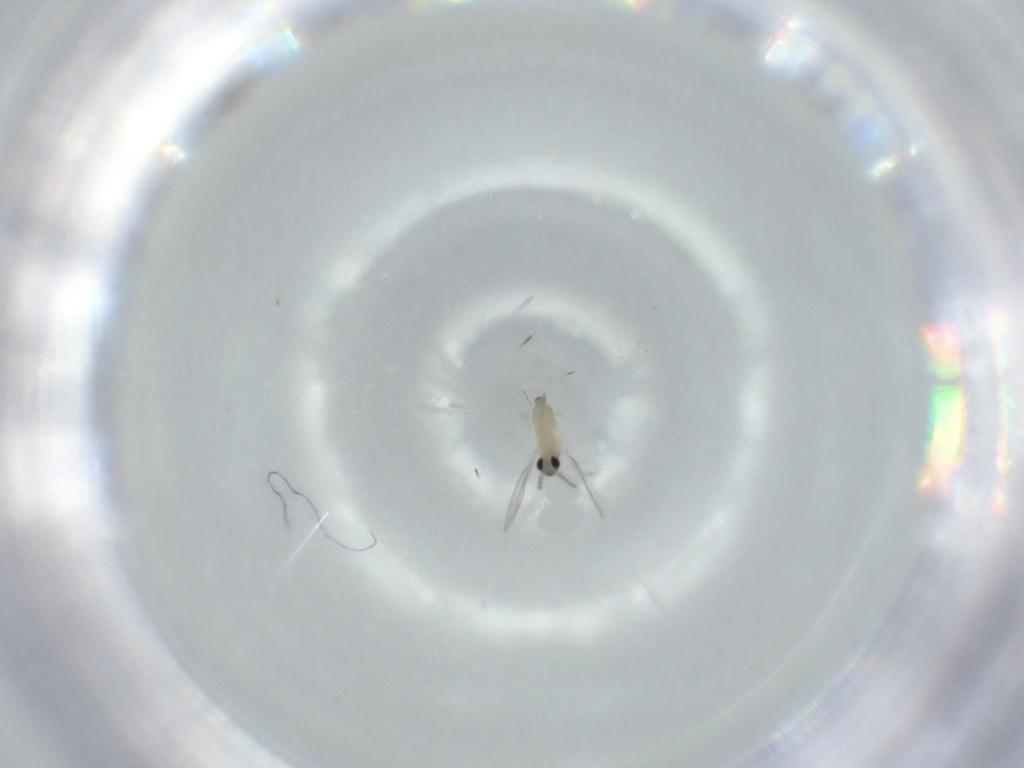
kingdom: Animalia
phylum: Arthropoda
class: Insecta
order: Diptera
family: Cecidomyiidae
